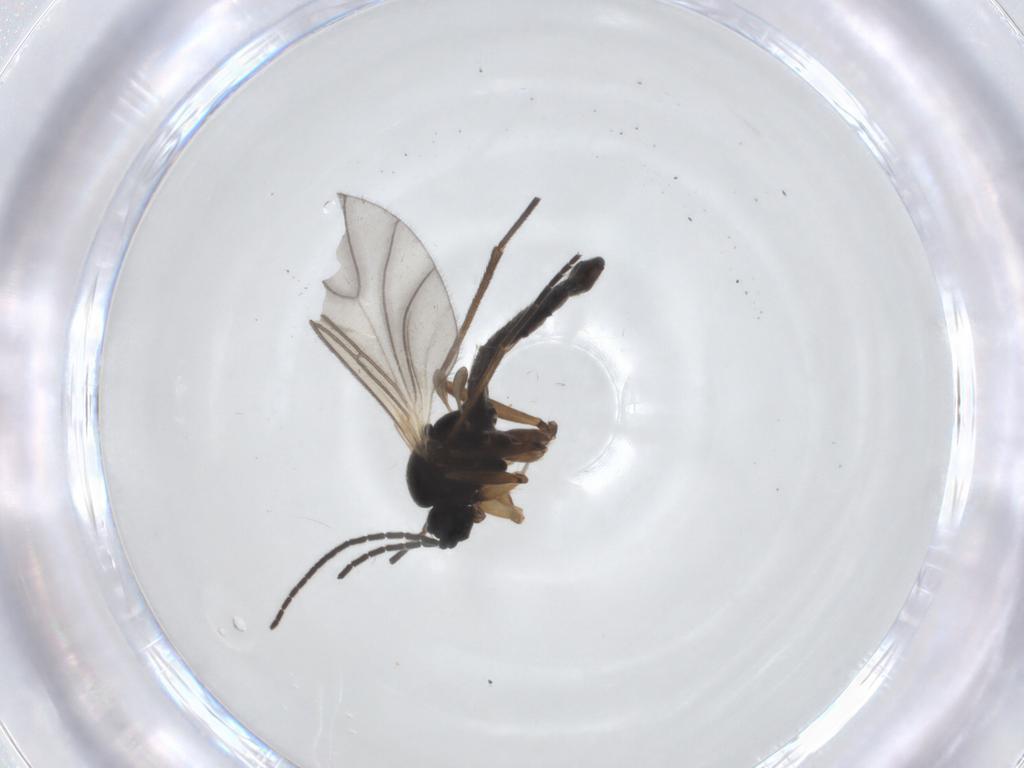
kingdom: Animalia
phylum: Arthropoda
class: Insecta
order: Diptera
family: Sciaridae
